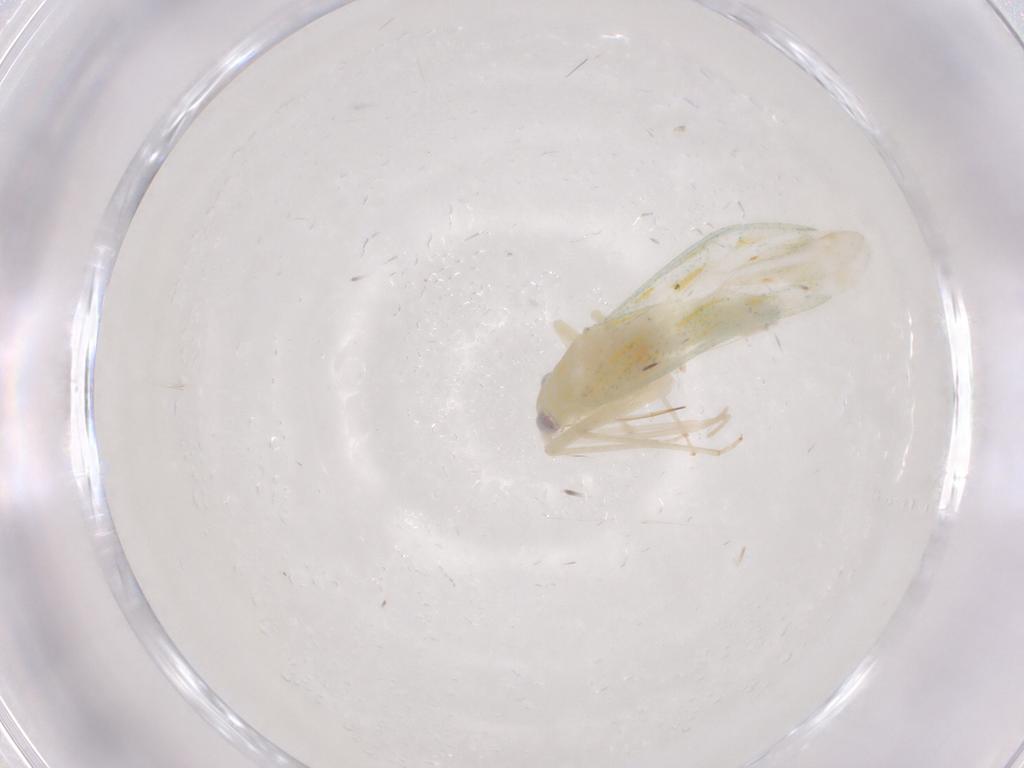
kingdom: Animalia
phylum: Arthropoda
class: Insecta
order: Hemiptera
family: Miridae
